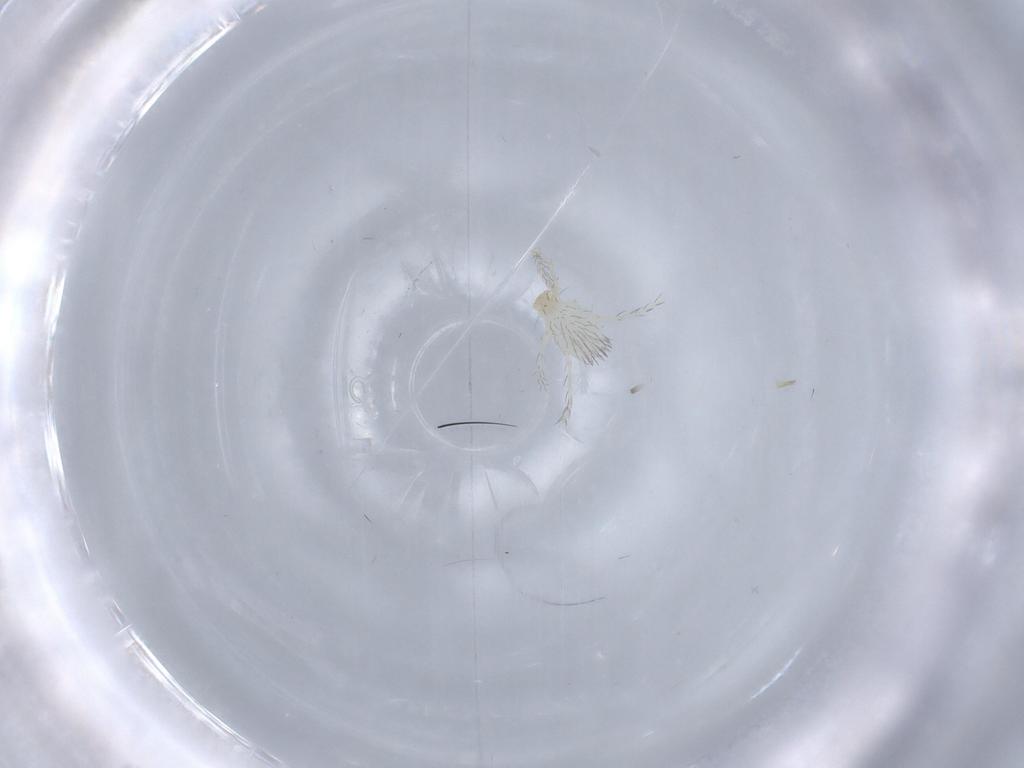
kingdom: Animalia
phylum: Arthropoda
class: Arachnida
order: Trombidiformes
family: Erythraeidae
